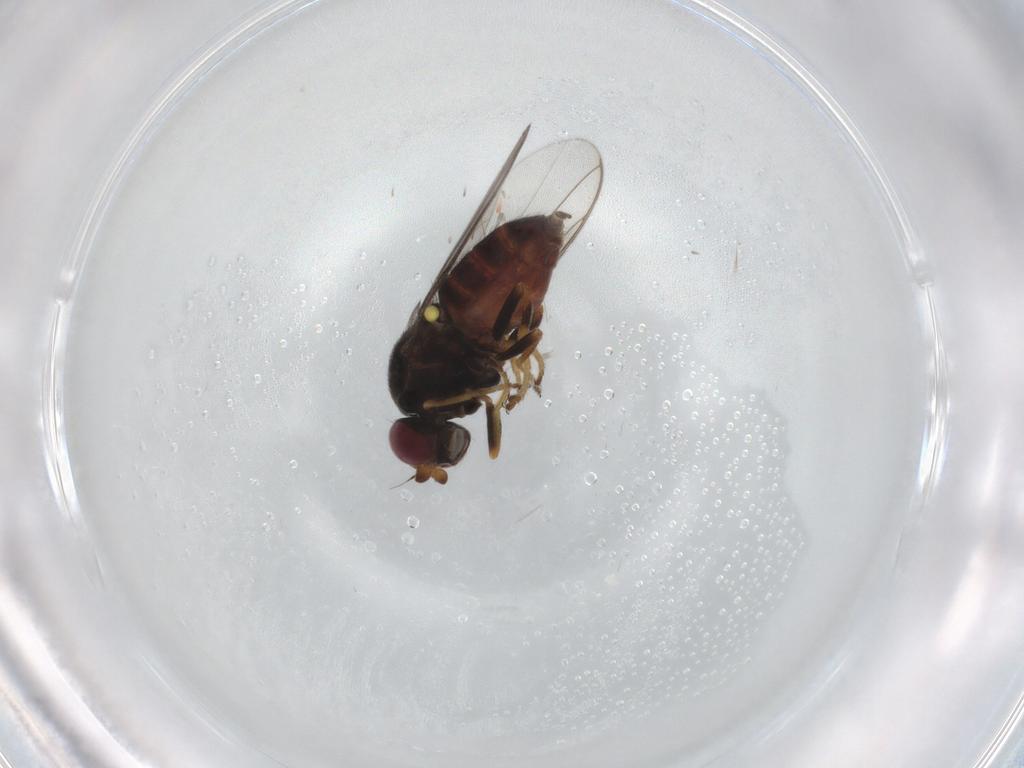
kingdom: Animalia
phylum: Arthropoda
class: Insecta
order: Diptera
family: Chloropidae
